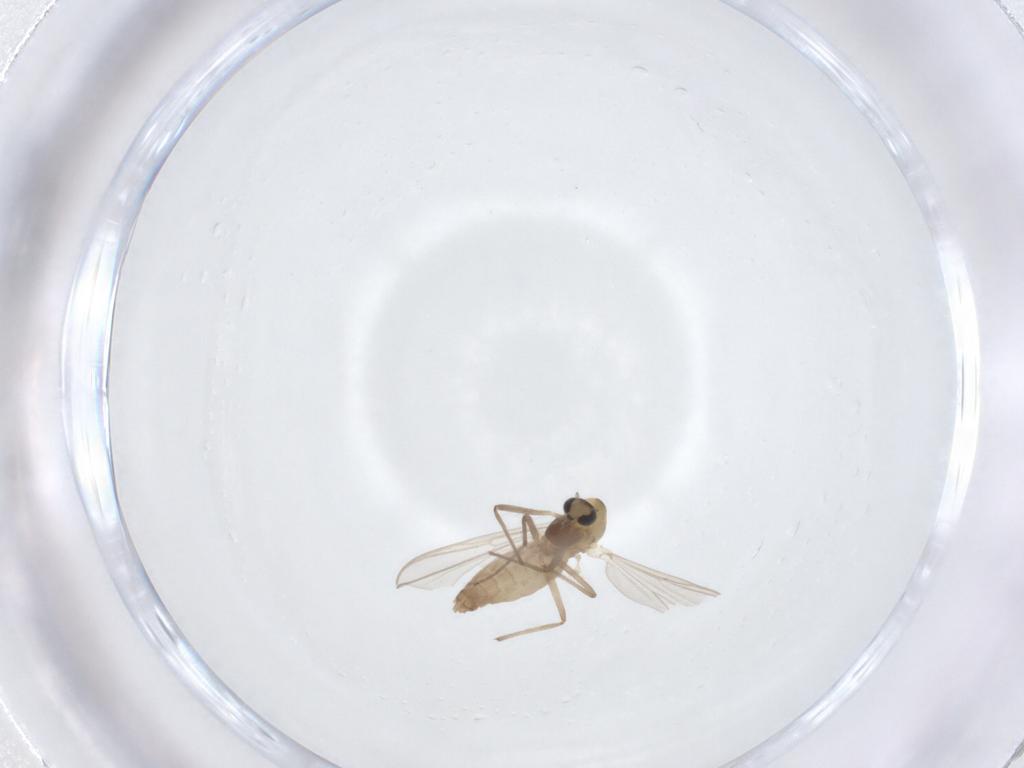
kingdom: Animalia
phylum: Arthropoda
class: Insecta
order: Diptera
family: Chironomidae
